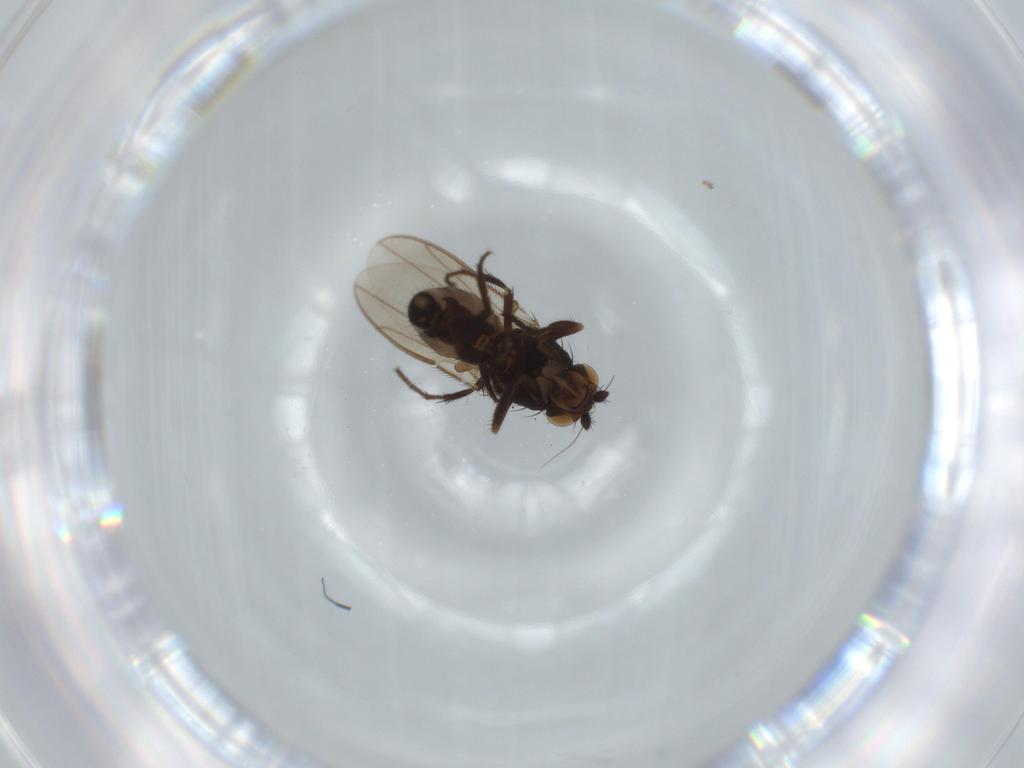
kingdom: Animalia
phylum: Arthropoda
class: Insecta
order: Diptera
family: Sphaeroceridae
